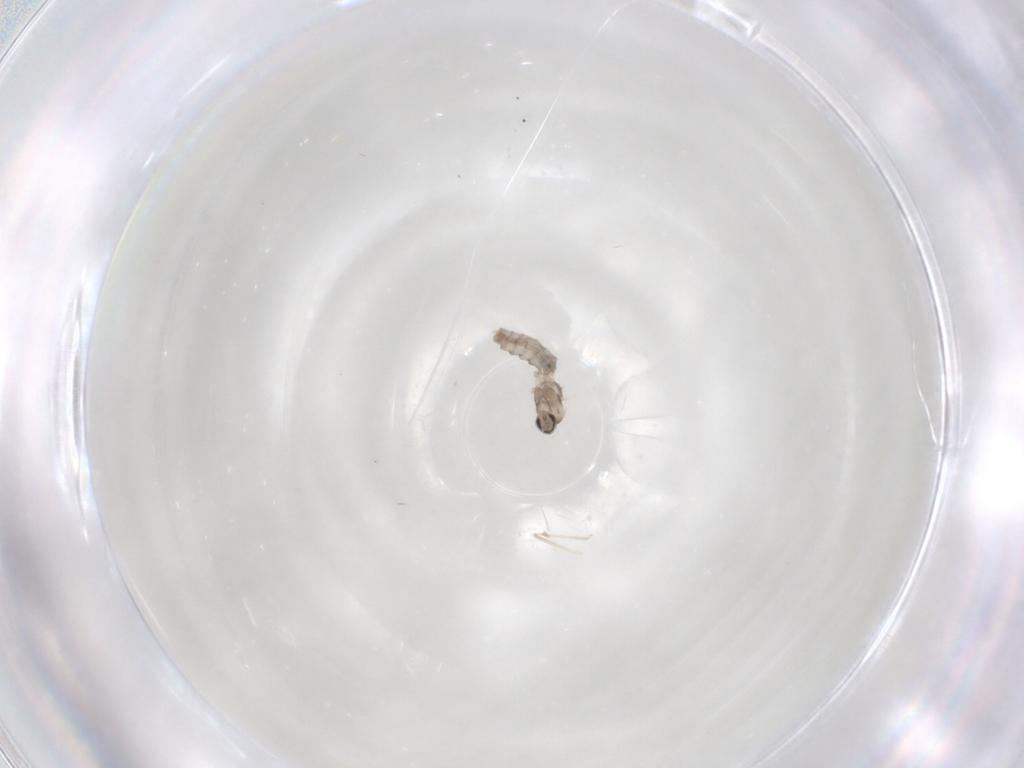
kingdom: Animalia
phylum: Arthropoda
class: Insecta
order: Diptera
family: Cecidomyiidae
